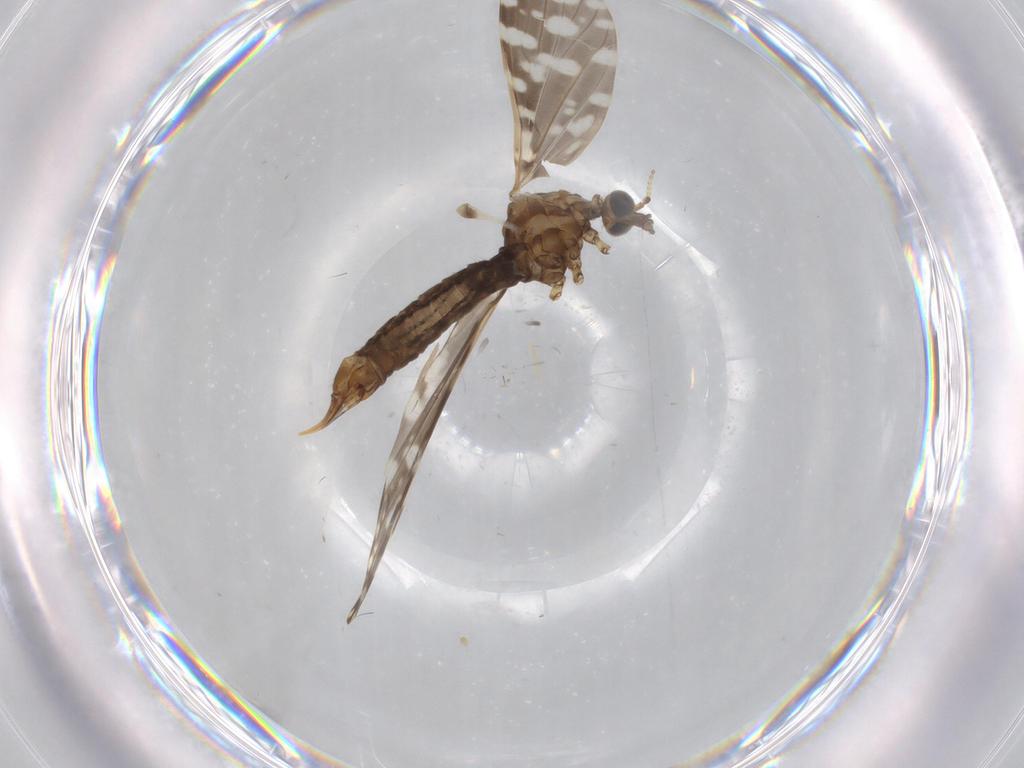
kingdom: Animalia
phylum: Arthropoda
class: Insecta
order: Diptera
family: Limoniidae
